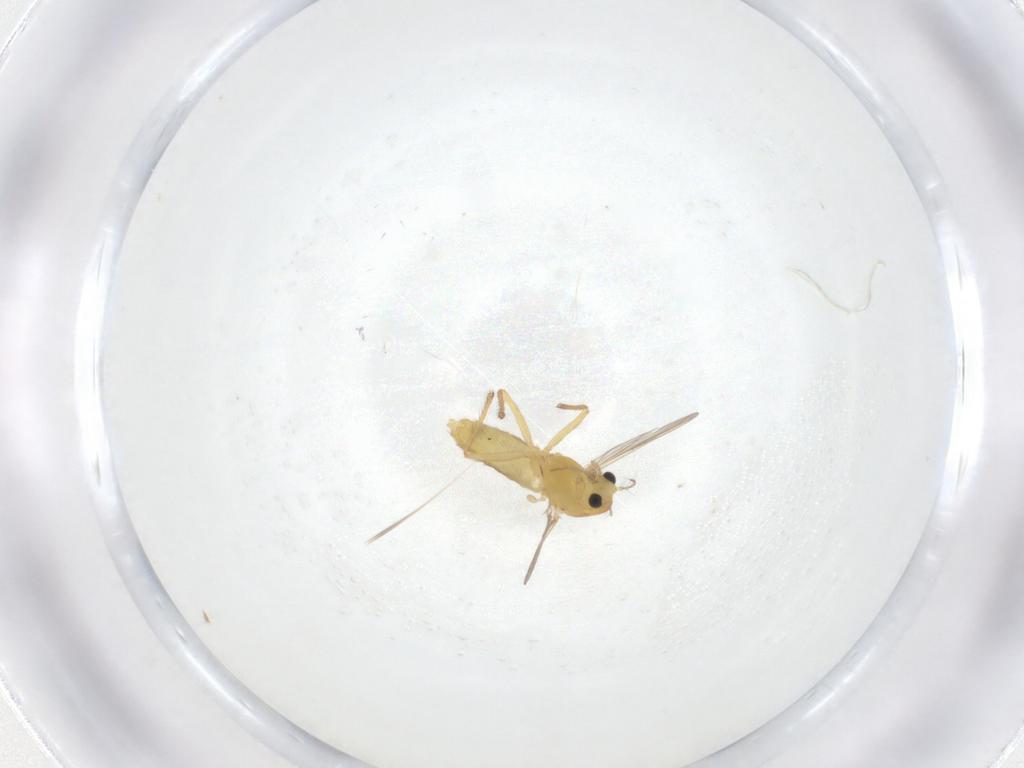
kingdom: Animalia
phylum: Arthropoda
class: Insecta
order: Diptera
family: Chironomidae
